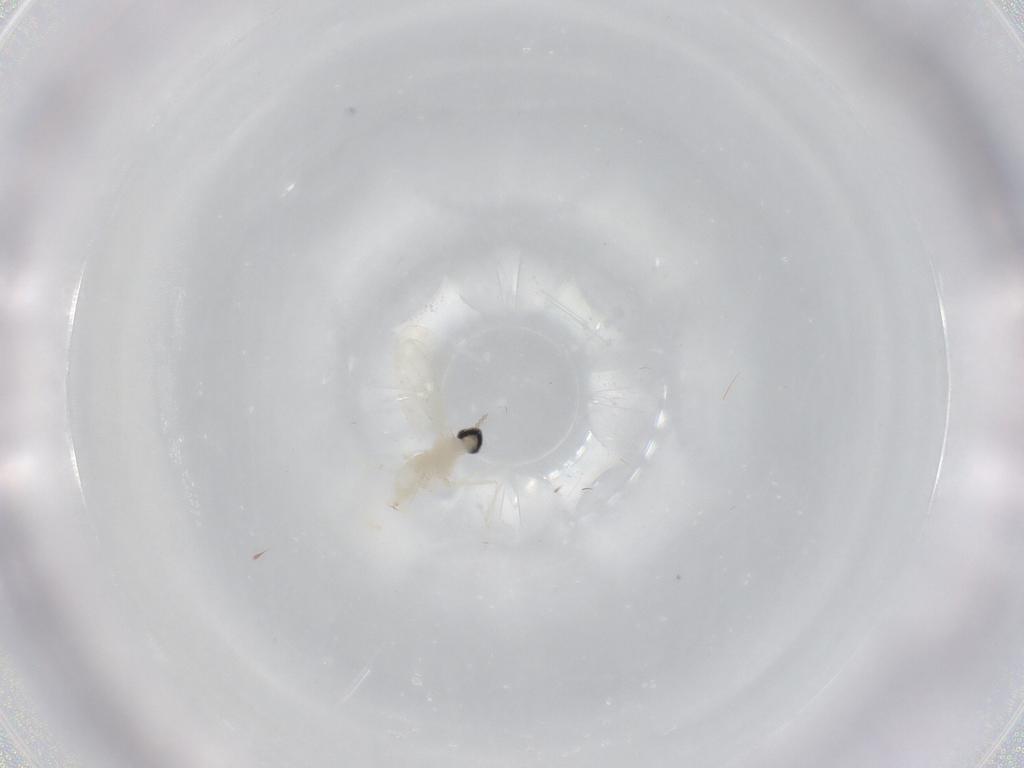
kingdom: Animalia
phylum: Arthropoda
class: Insecta
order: Diptera
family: Cecidomyiidae
